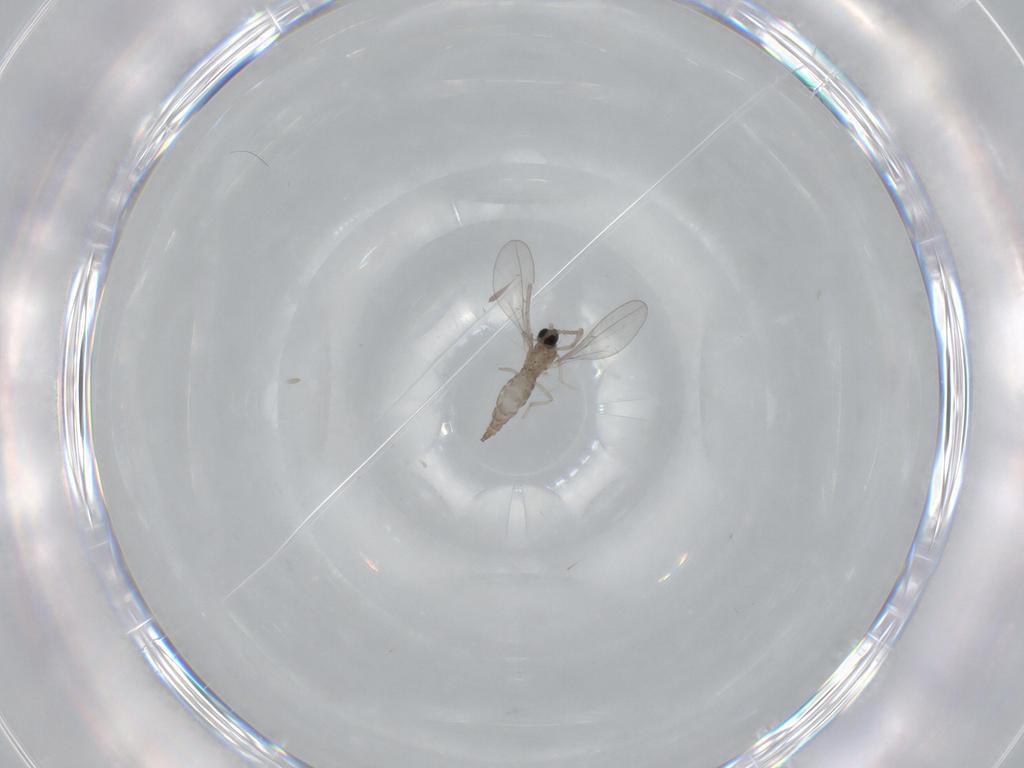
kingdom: Animalia
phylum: Arthropoda
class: Insecta
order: Diptera
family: Cecidomyiidae
